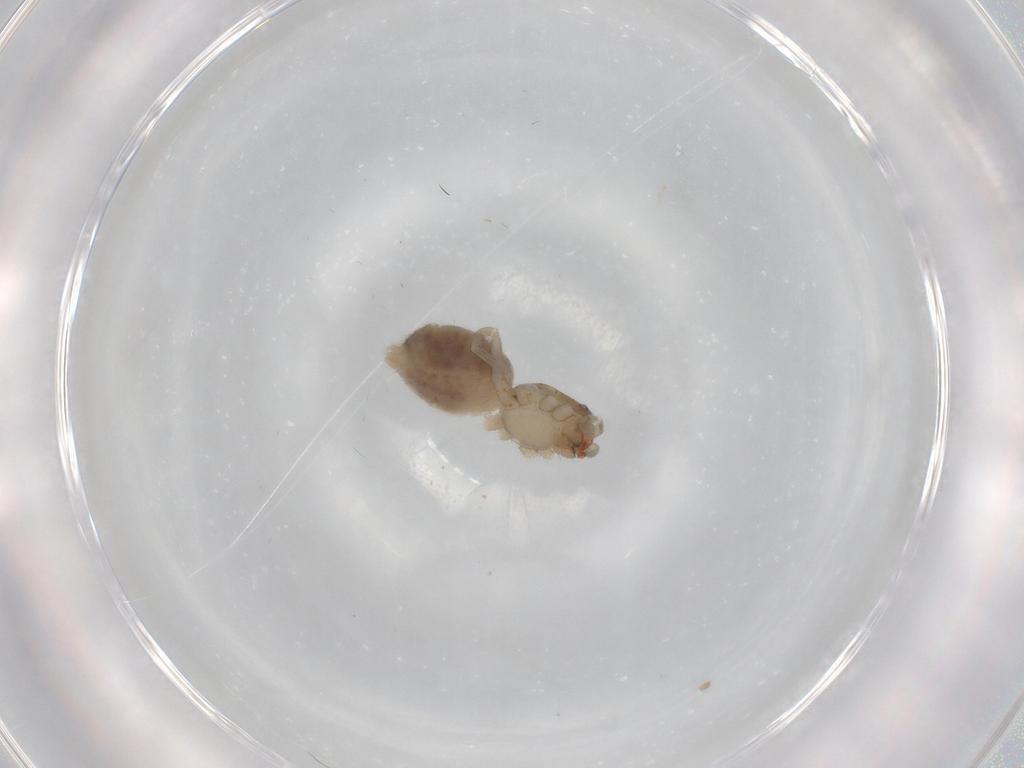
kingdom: Animalia
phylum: Arthropoda
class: Arachnida
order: Araneae
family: Trachelidae
